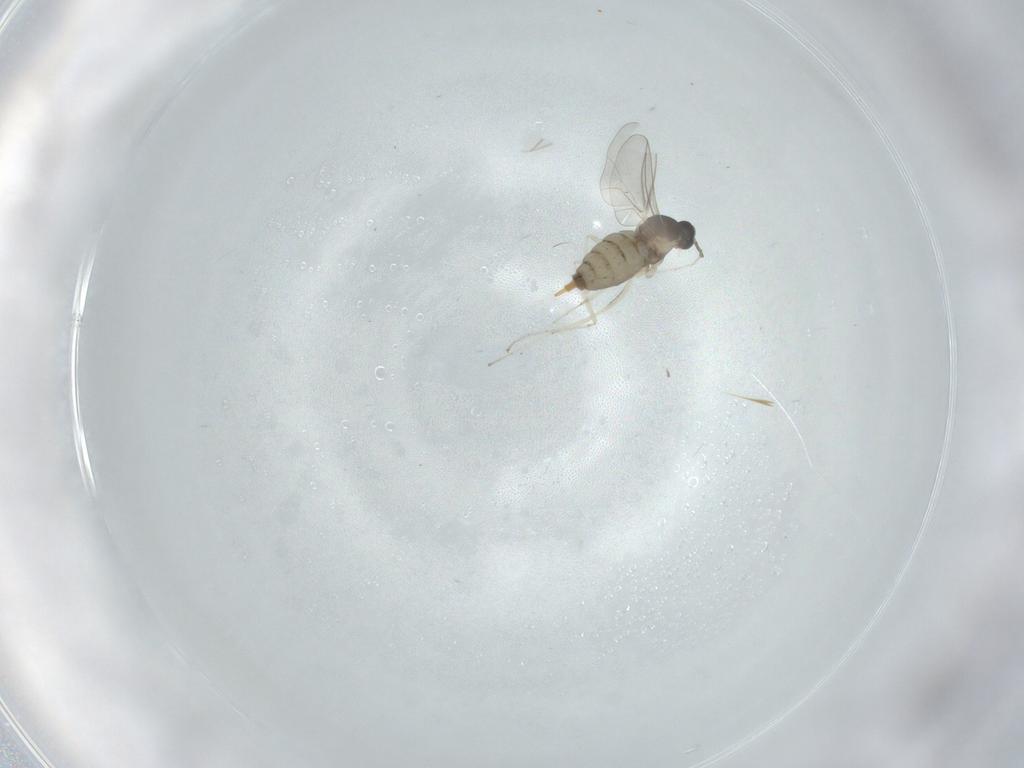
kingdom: Animalia
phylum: Arthropoda
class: Insecta
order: Diptera
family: Cecidomyiidae
